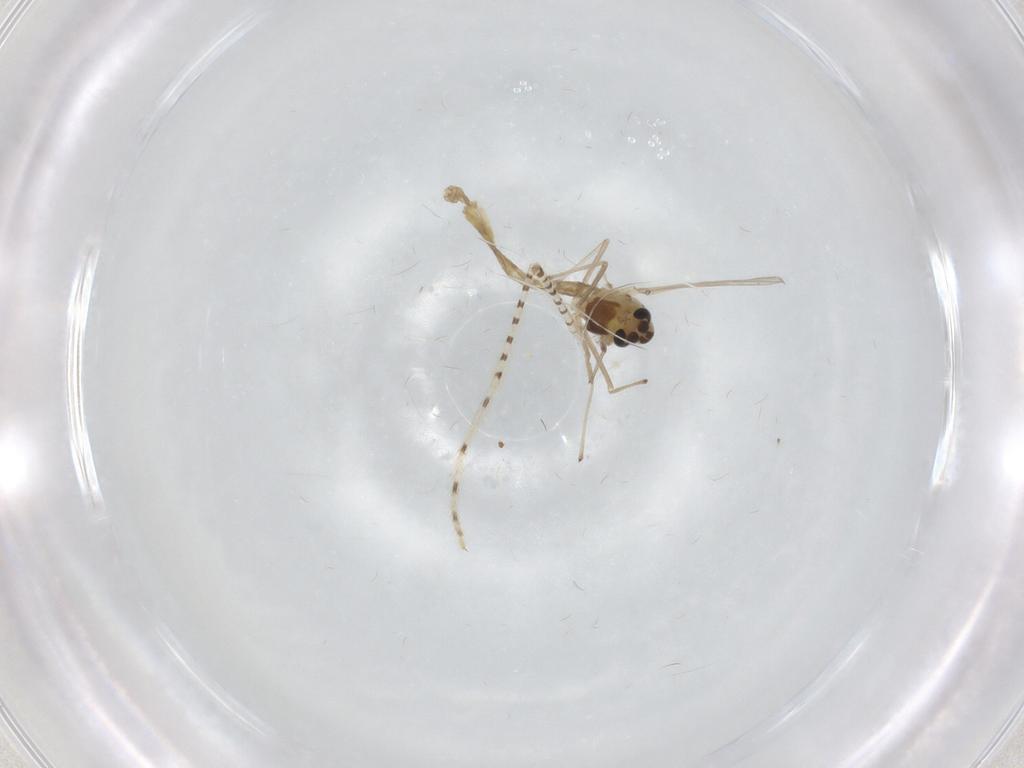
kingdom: Animalia
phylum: Arthropoda
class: Insecta
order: Diptera
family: Chironomidae
